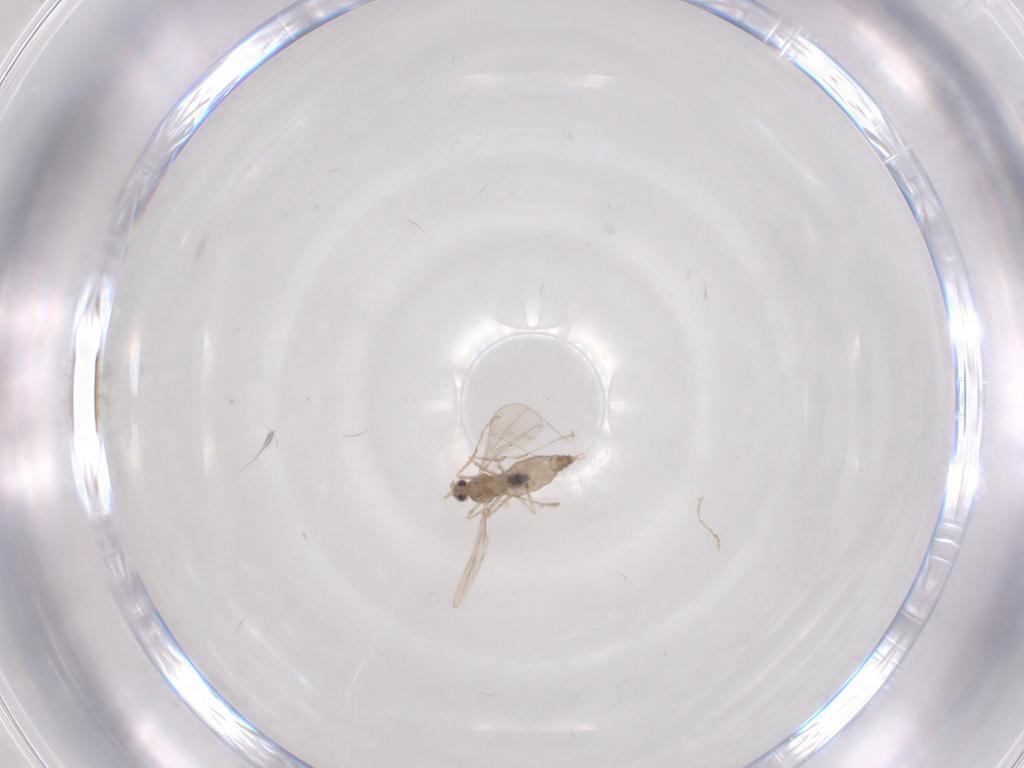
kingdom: Animalia
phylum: Arthropoda
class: Insecta
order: Diptera
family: Cecidomyiidae
